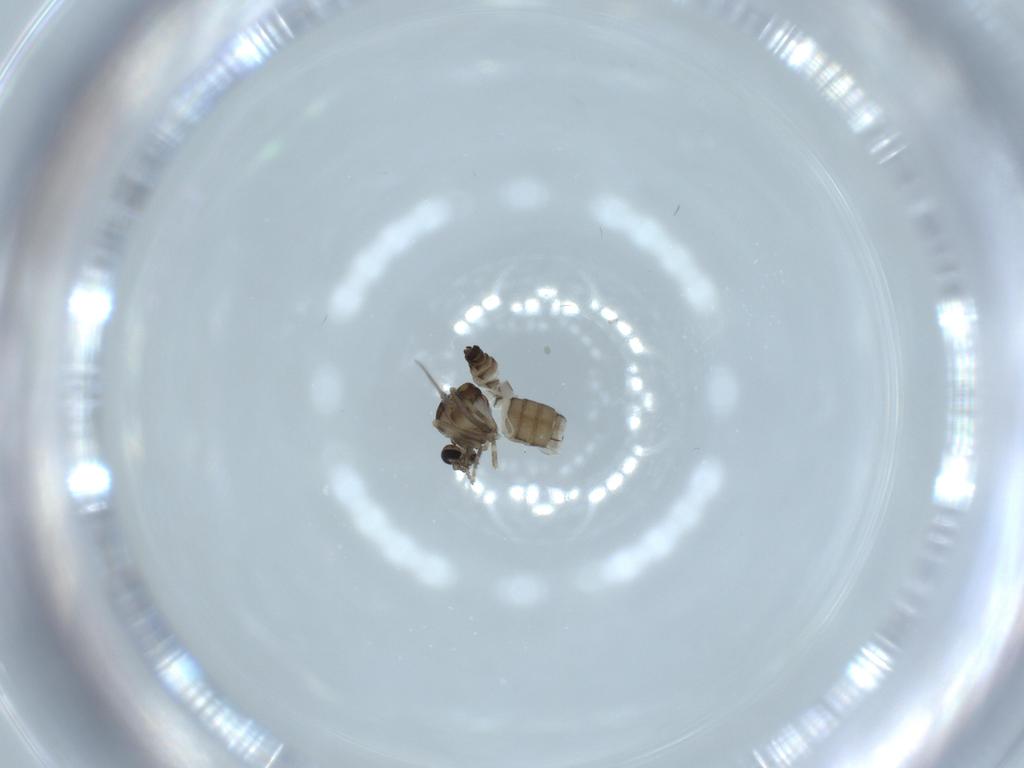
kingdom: Animalia
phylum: Arthropoda
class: Insecta
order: Diptera
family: Ceratopogonidae
